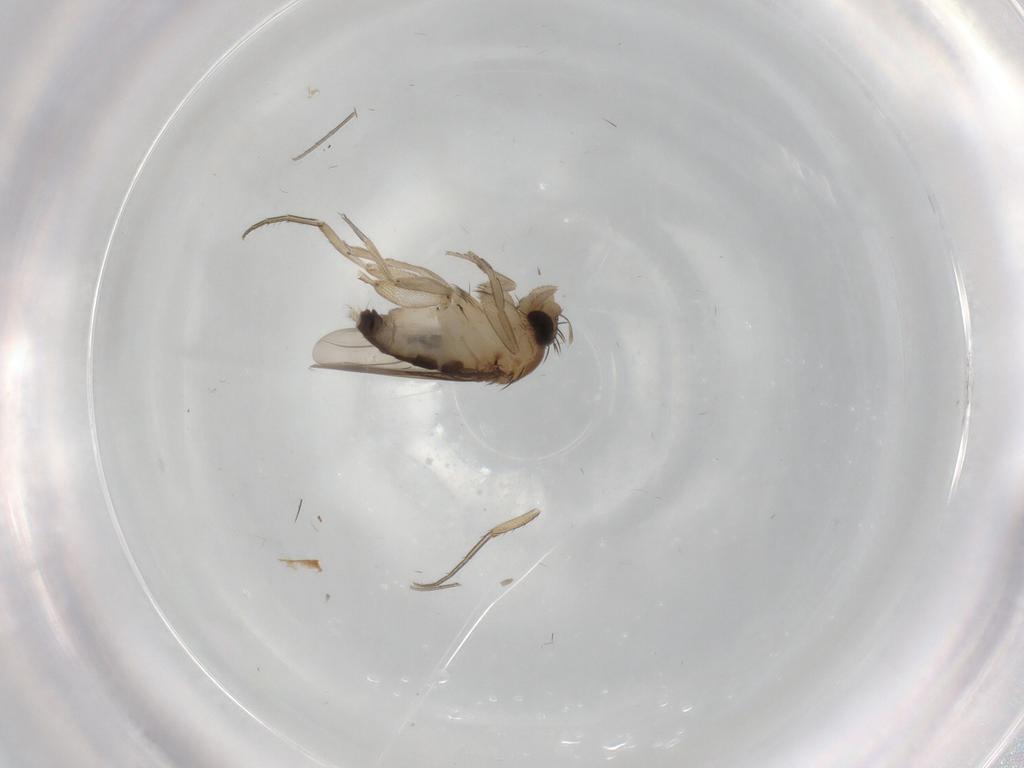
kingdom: Animalia
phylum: Arthropoda
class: Insecta
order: Diptera
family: Phoridae
